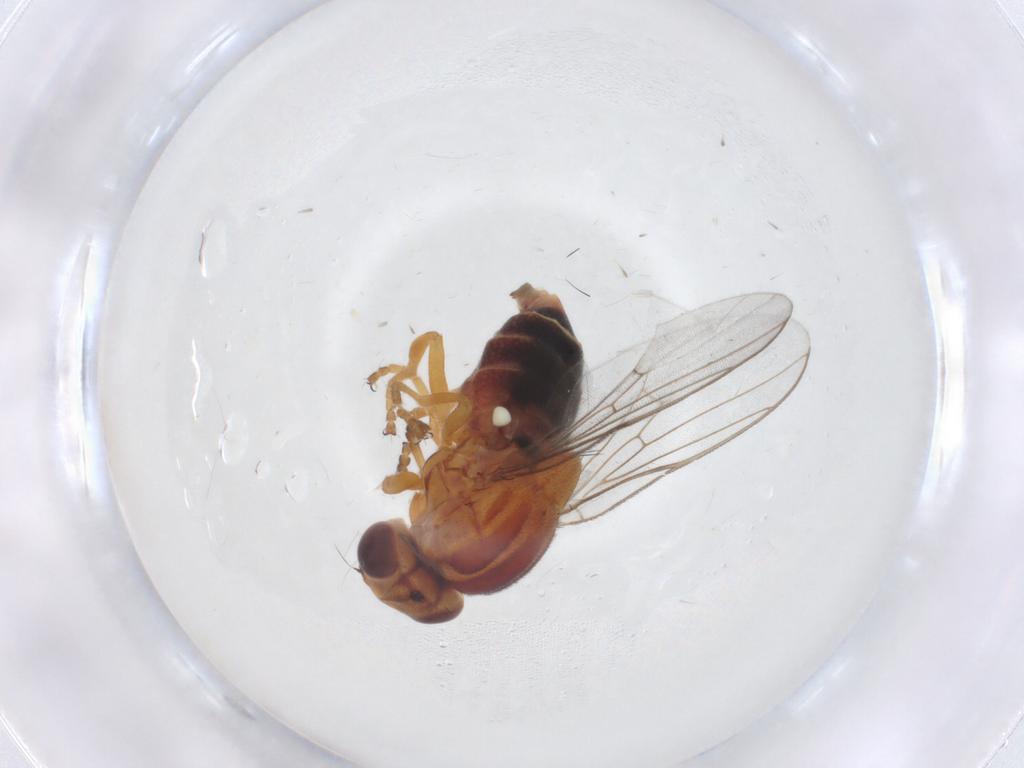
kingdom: Animalia
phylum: Arthropoda
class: Insecta
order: Diptera
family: Chloropidae
